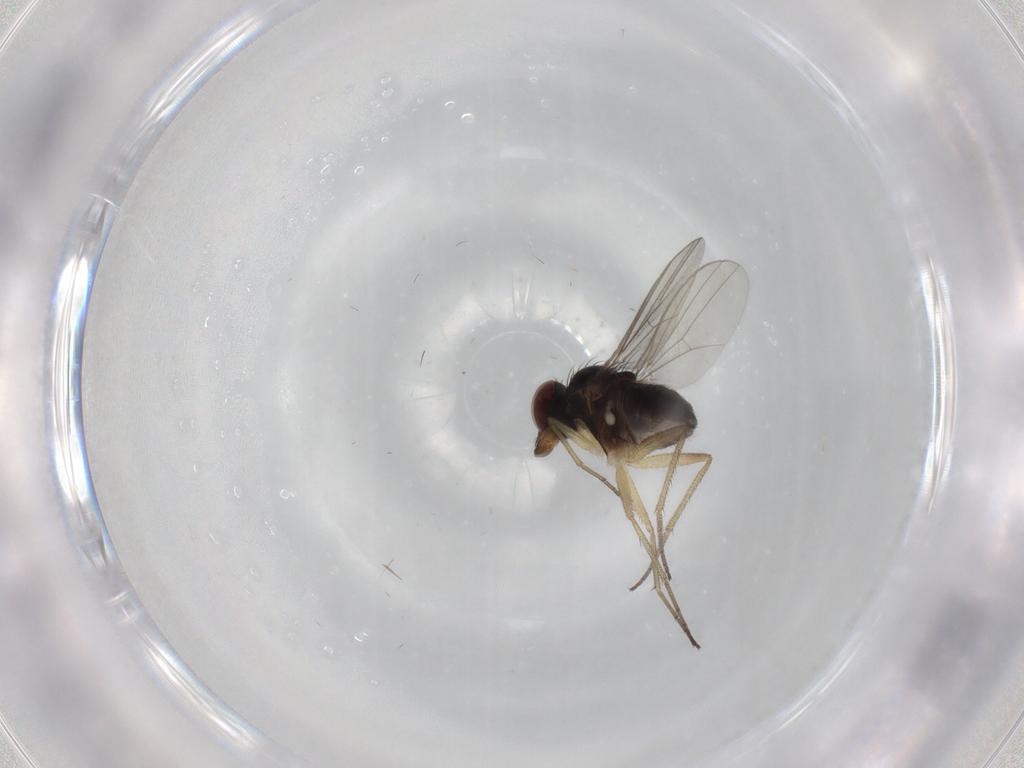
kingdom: Animalia
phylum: Arthropoda
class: Insecta
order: Diptera
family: Dolichopodidae
